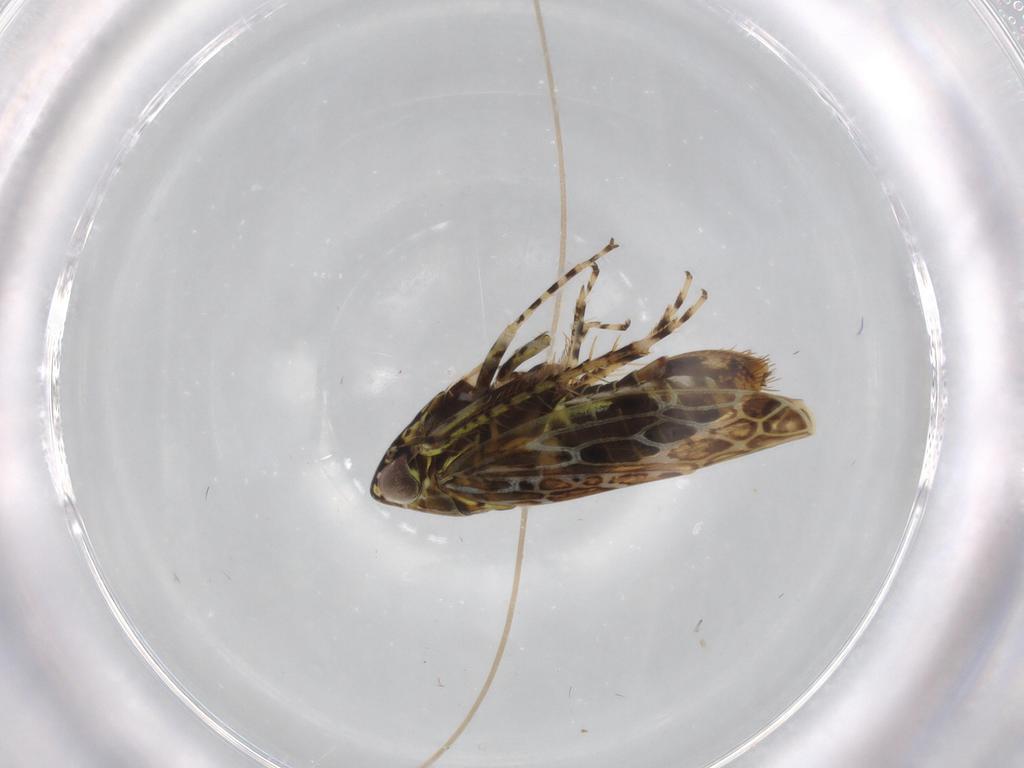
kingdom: Animalia
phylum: Arthropoda
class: Insecta
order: Hemiptera
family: Cicadellidae
